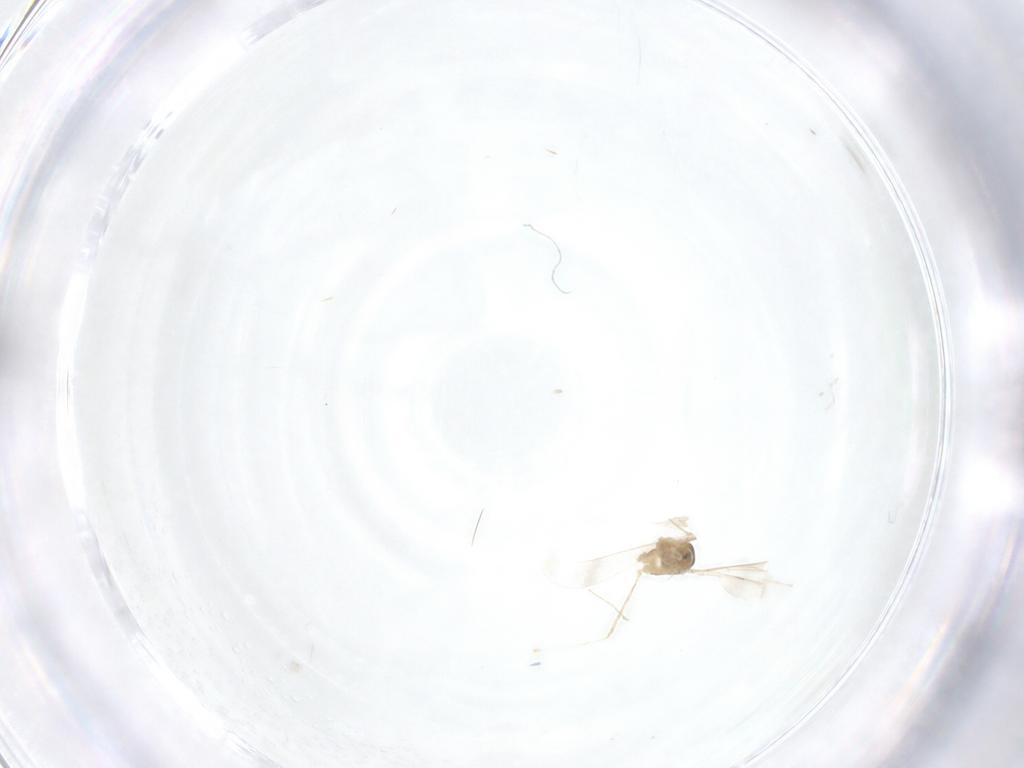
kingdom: Animalia
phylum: Arthropoda
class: Insecta
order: Diptera
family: Cecidomyiidae
